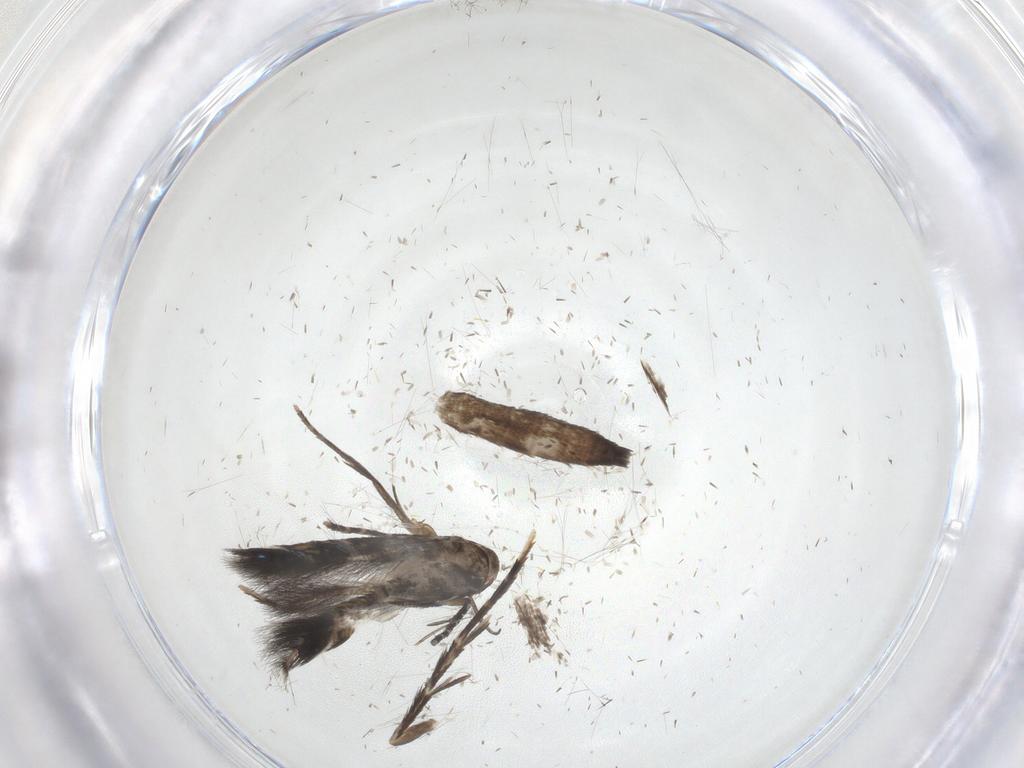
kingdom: Animalia
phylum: Arthropoda
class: Insecta
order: Lepidoptera
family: Cosmopterigidae
